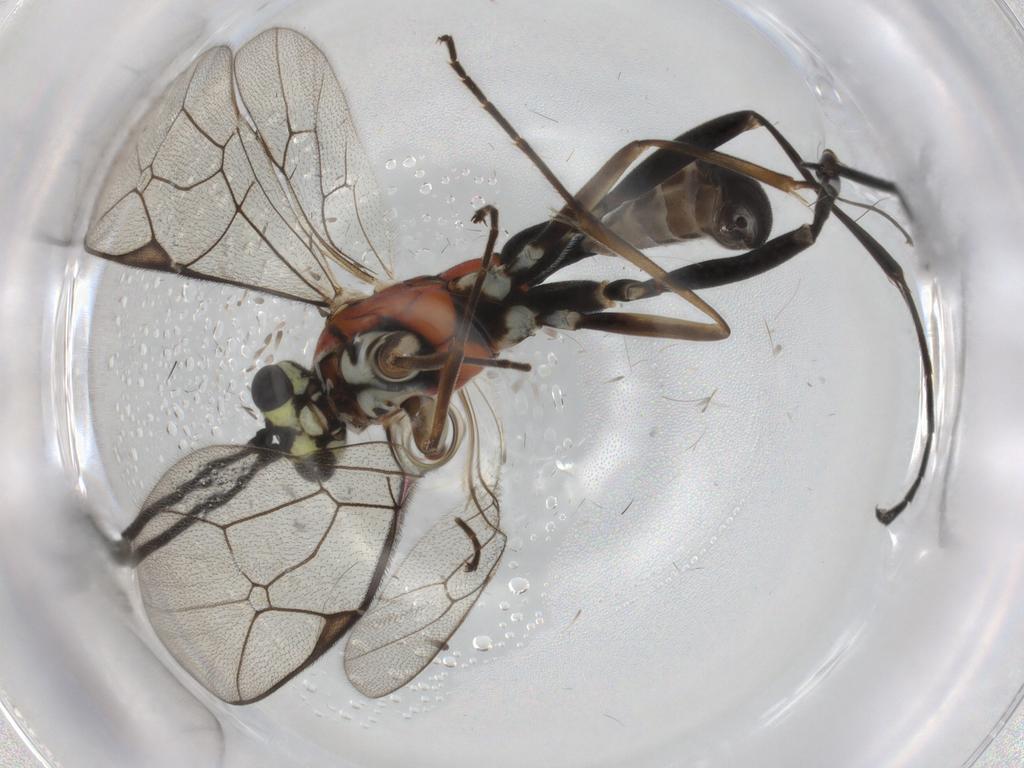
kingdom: Animalia
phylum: Arthropoda
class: Insecta
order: Hymenoptera
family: Ichneumonidae
